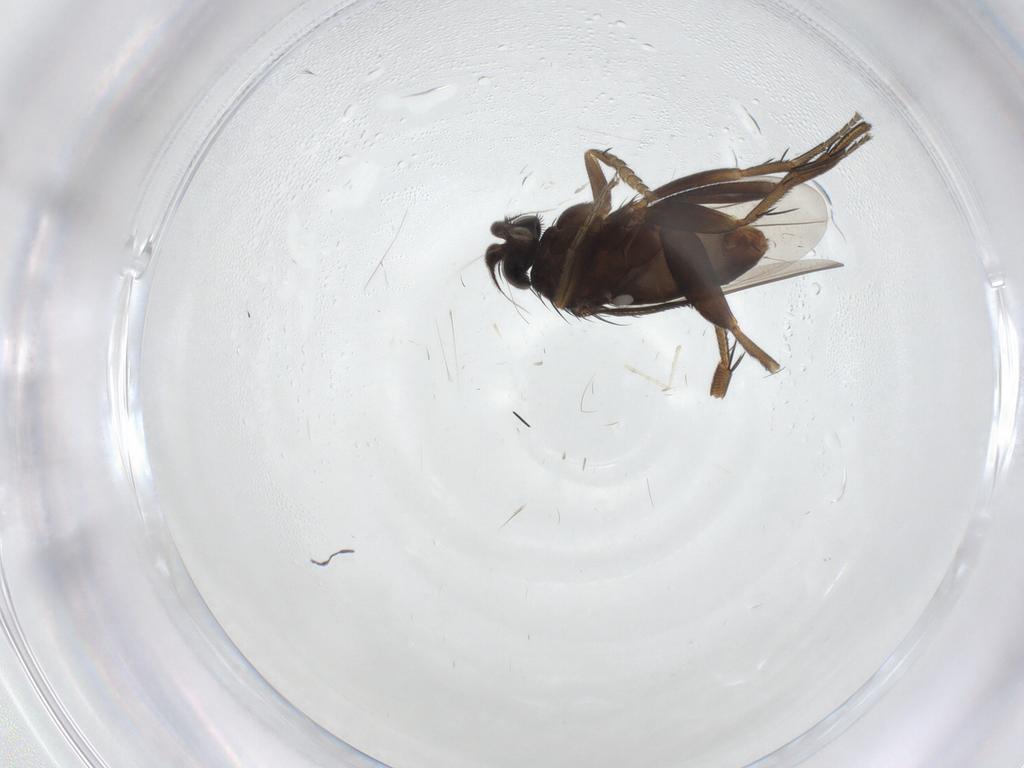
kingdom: Animalia
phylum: Arthropoda
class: Insecta
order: Diptera
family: Phoridae
